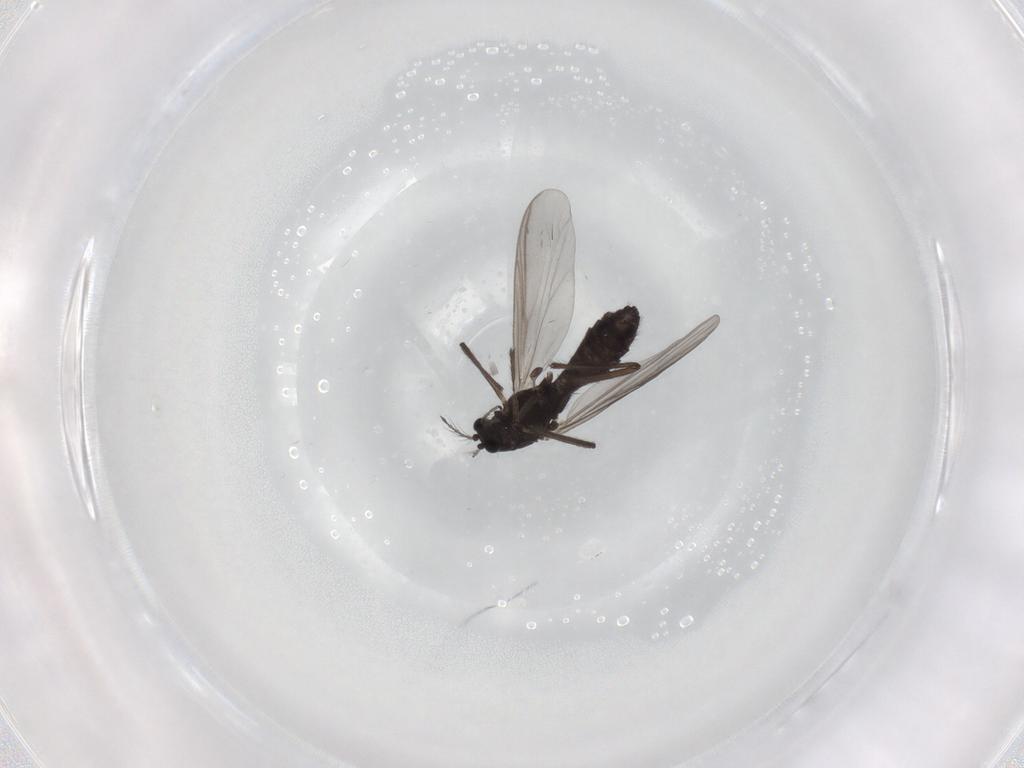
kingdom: Animalia
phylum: Arthropoda
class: Insecta
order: Diptera
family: Chironomidae
